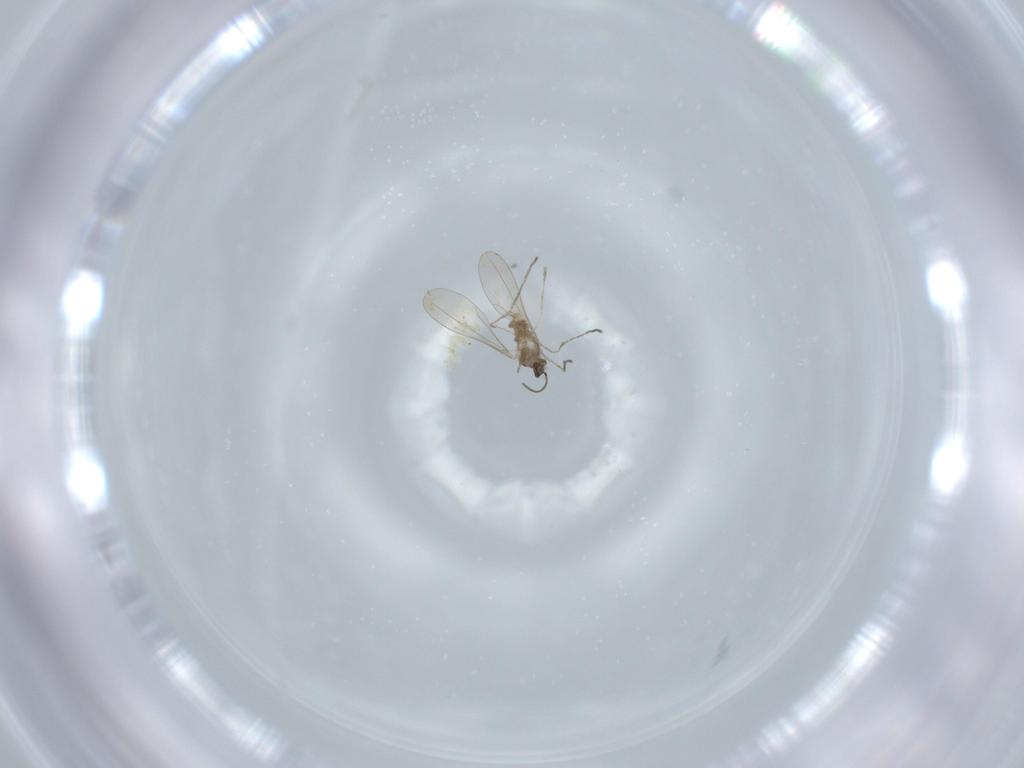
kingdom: Animalia
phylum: Arthropoda
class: Insecta
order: Diptera
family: Cecidomyiidae
